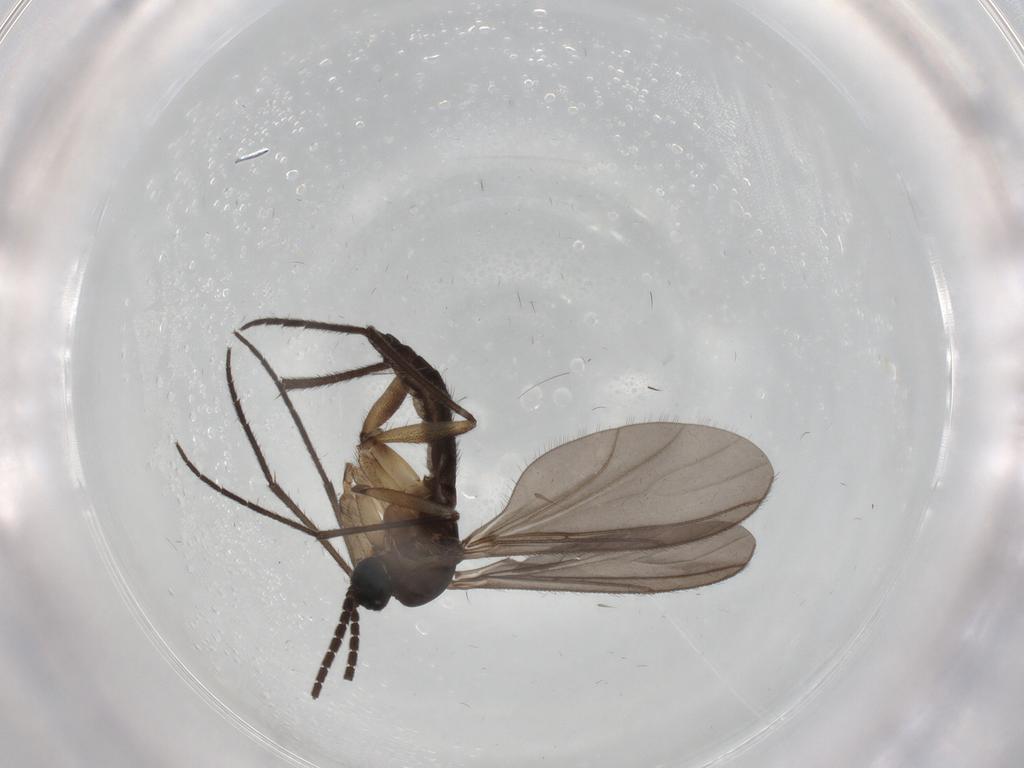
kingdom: Animalia
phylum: Arthropoda
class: Insecta
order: Diptera
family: Sciaridae
